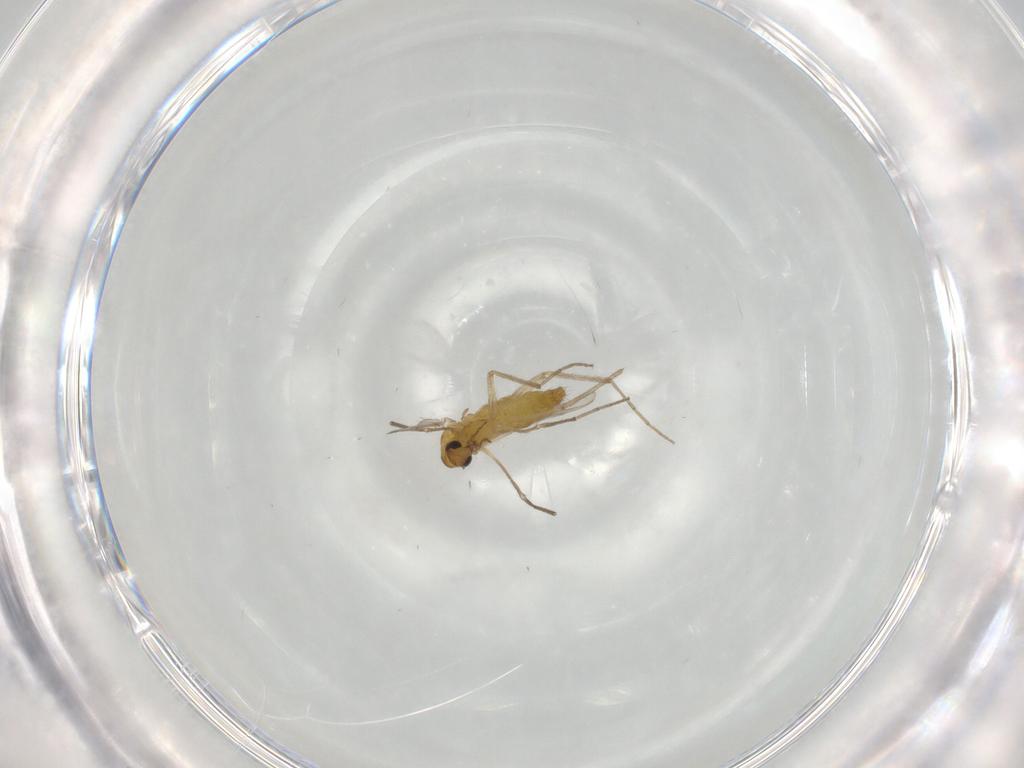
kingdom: Animalia
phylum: Arthropoda
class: Insecta
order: Diptera
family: Chironomidae
